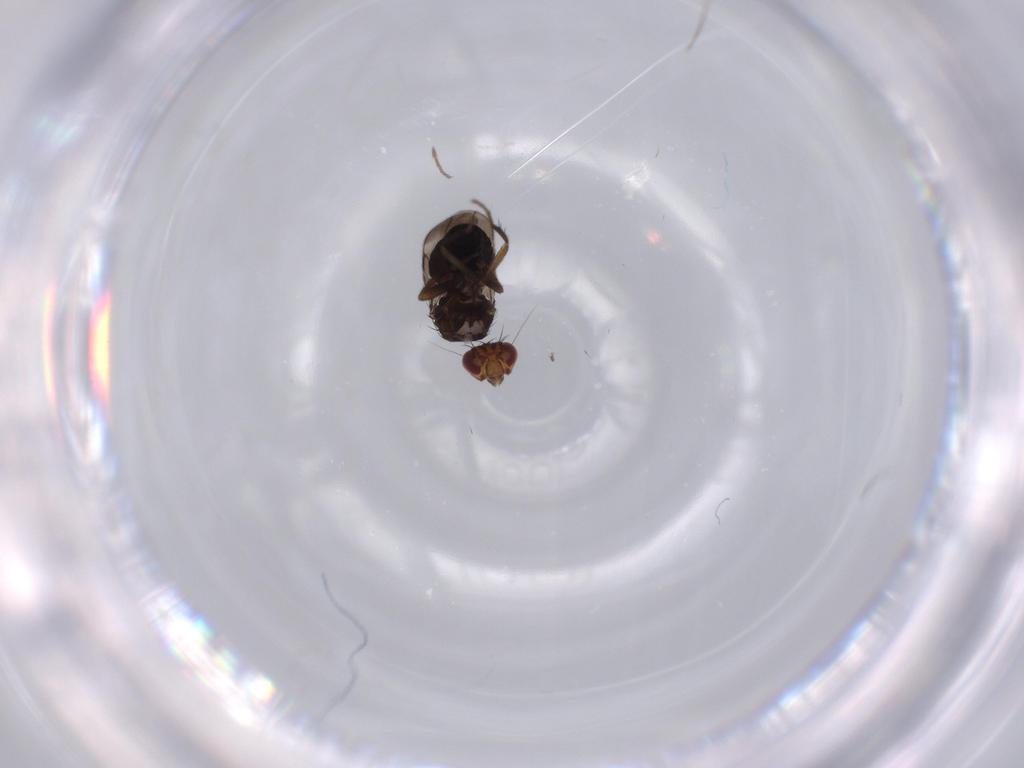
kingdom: Animalia
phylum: Arthropoda
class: Insecta
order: Diptera
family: Sphaeroceridae
